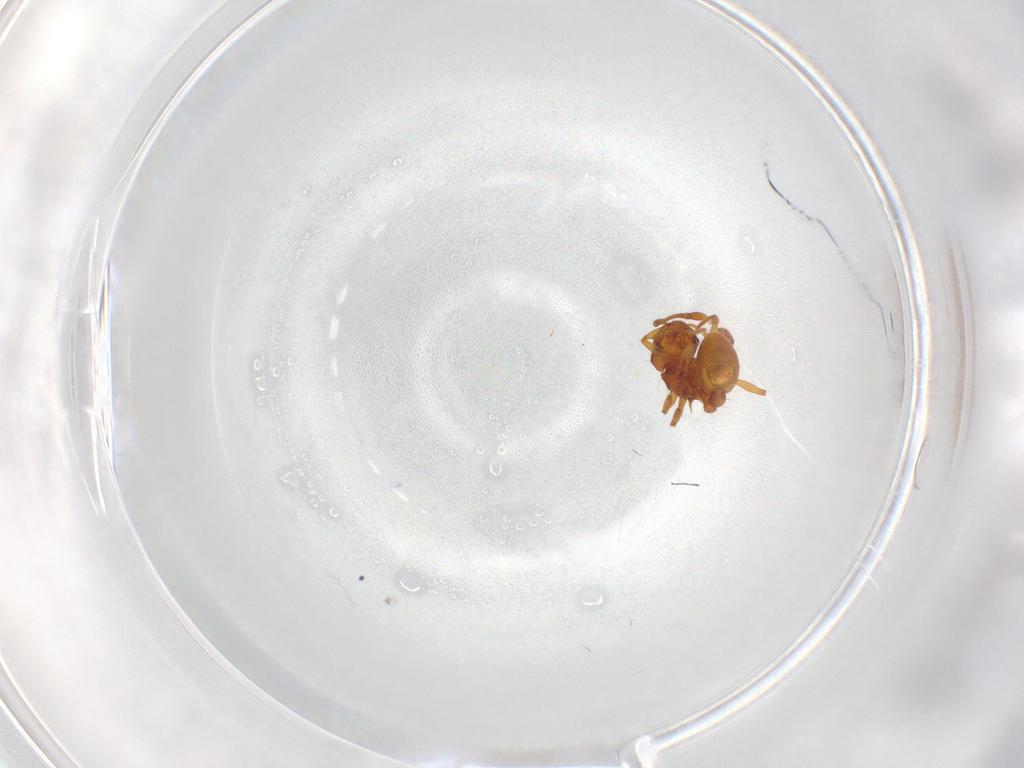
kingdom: Animalia
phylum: Arthropoda
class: Insecta
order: Hymenoptera
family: Formicidae
